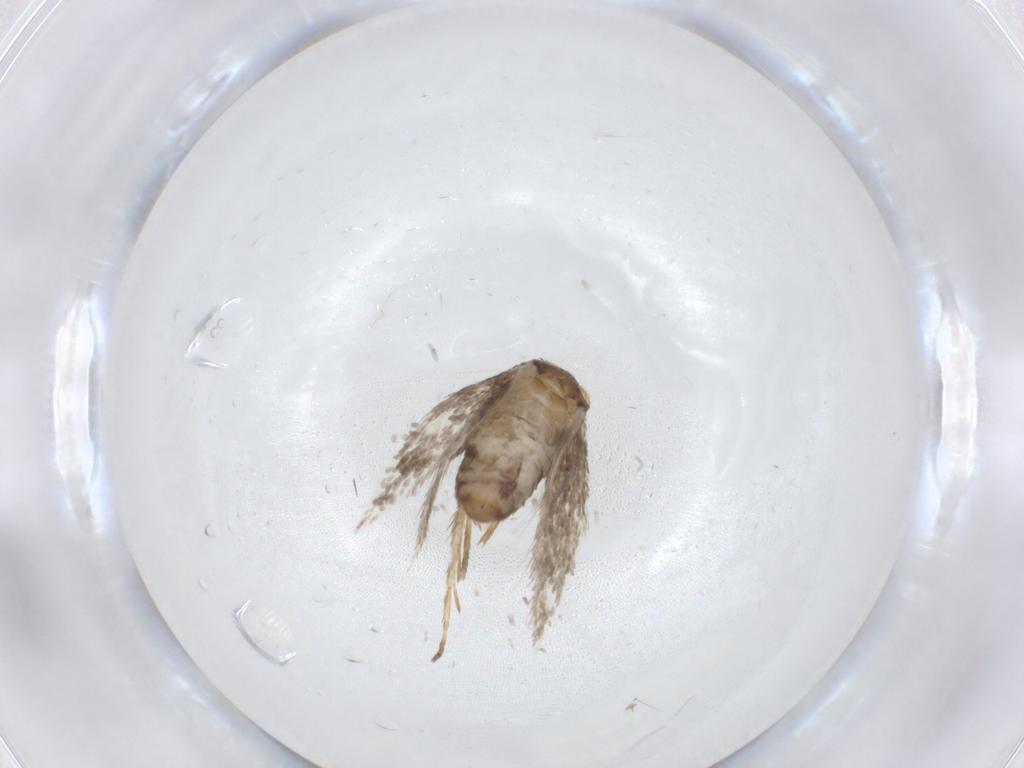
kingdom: Animalia
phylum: Arthropoda
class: Insecta
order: Lepidoptera
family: Nepticulidae
